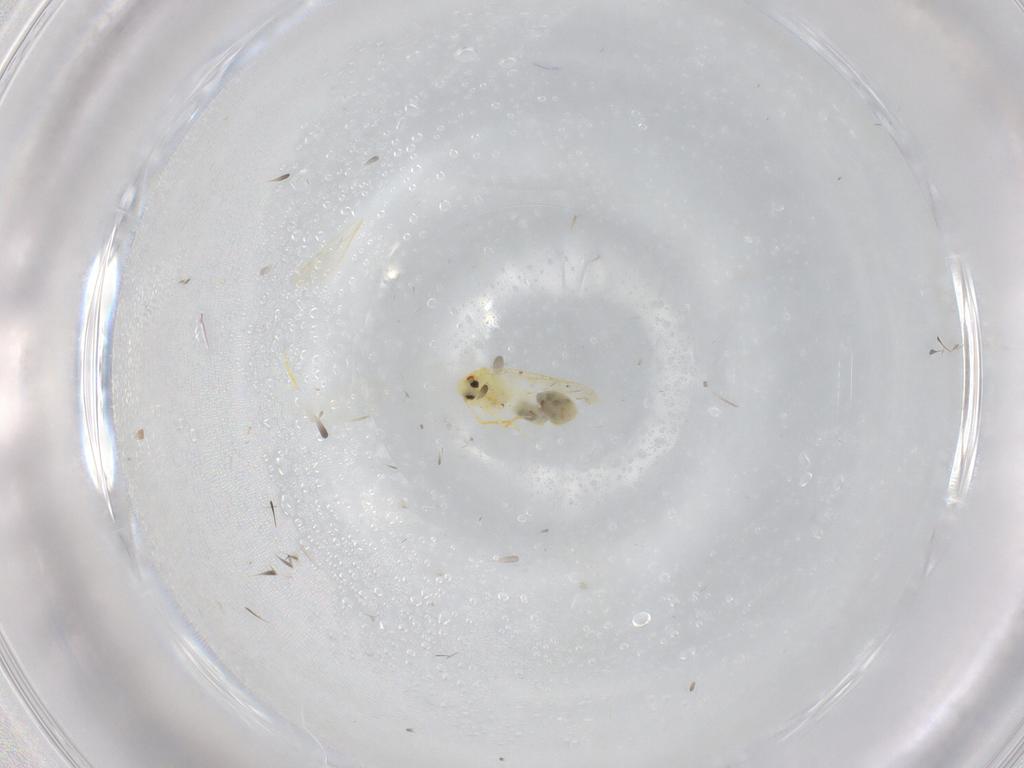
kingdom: Animalia
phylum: Arthropoda
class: Insecta
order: Hemiptera
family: Aleyrodidae
